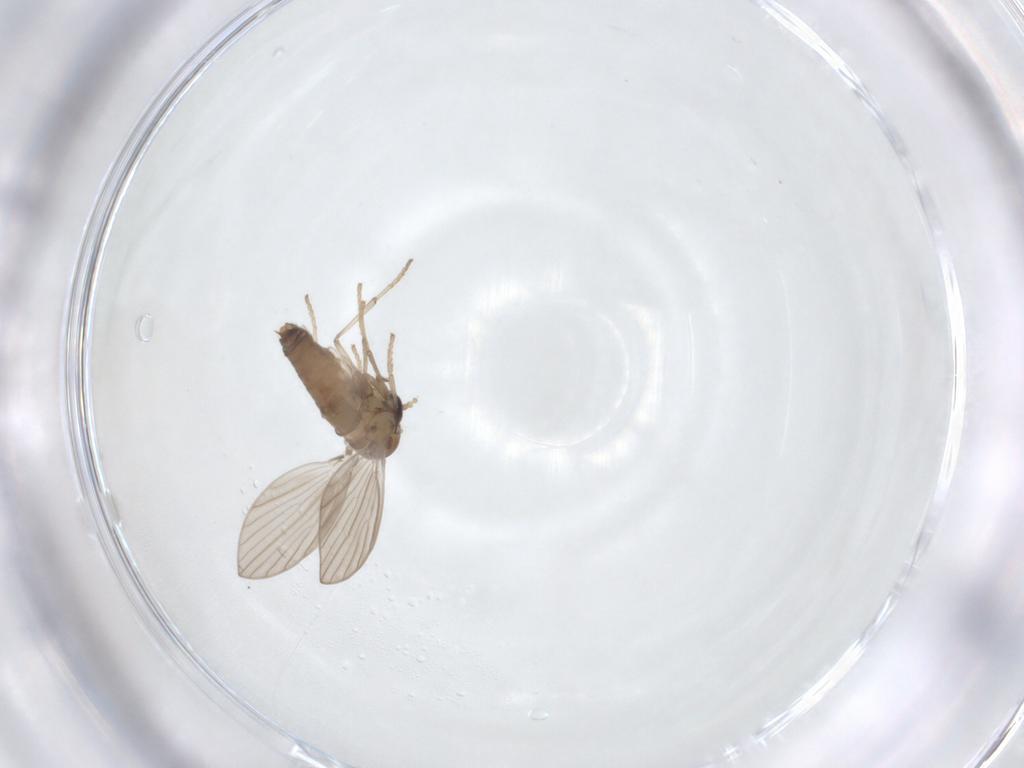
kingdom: Animalia
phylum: Arthropoda
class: Insecta
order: Diptera
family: Psychodidae
